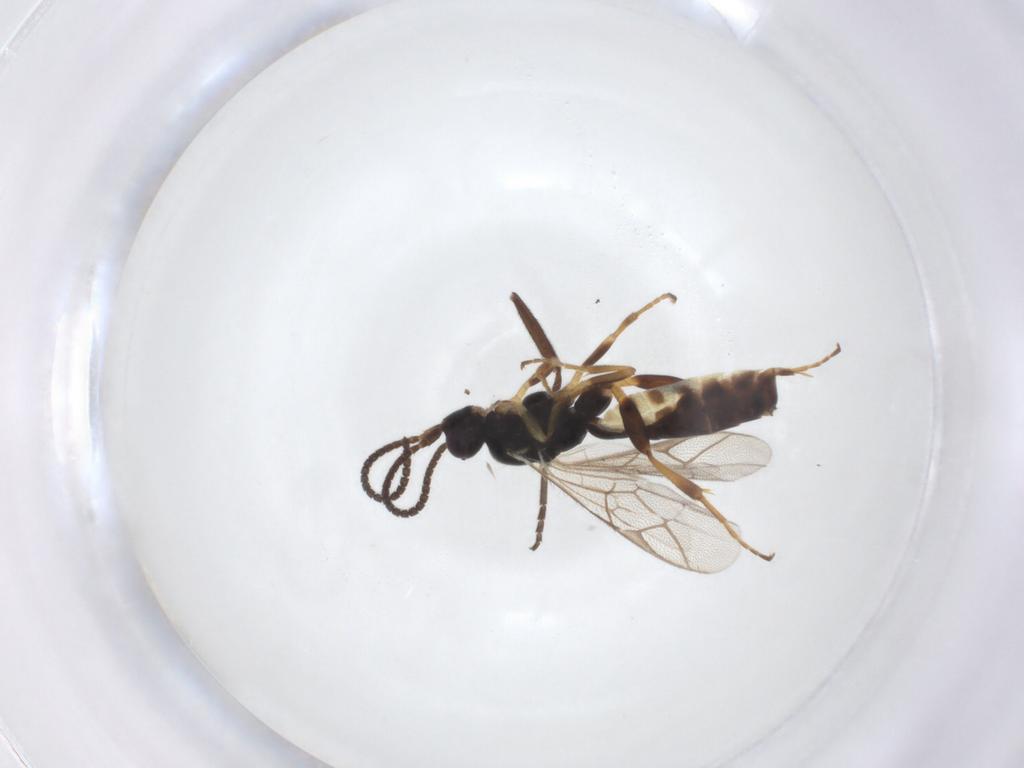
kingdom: Animalia
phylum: Arthropoda
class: Insecta
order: Hymenoptera
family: Ichneumonidae
